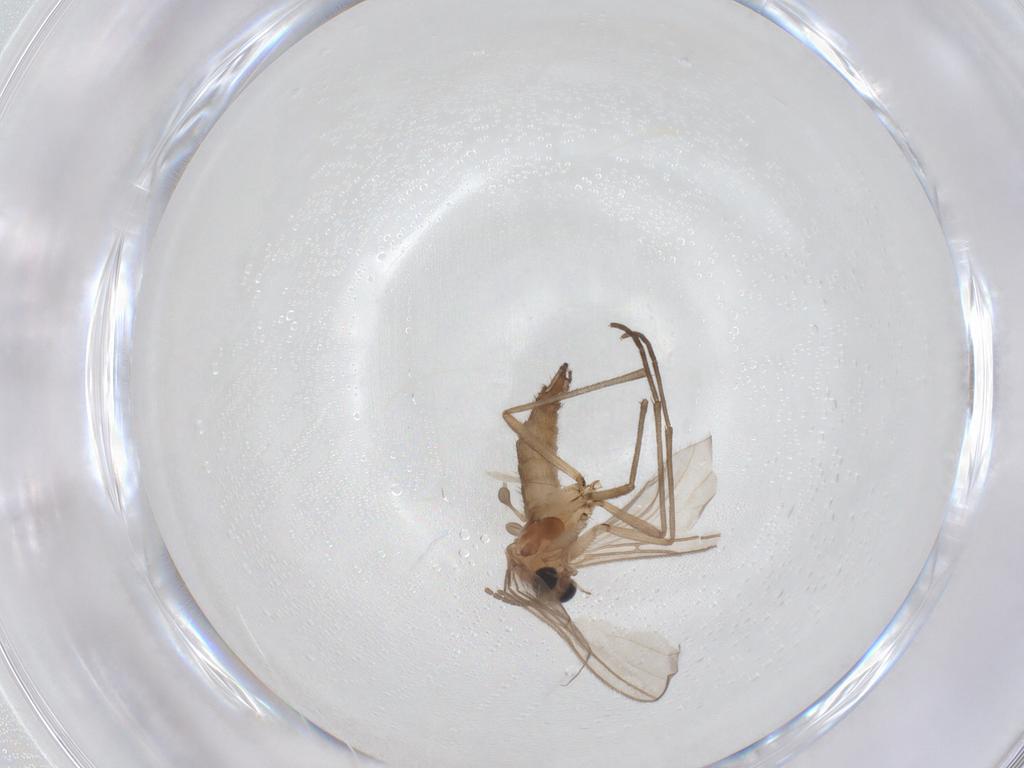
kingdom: Animalia
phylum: Arthropoda
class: Insecta
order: Diptera
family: Sciaridae
